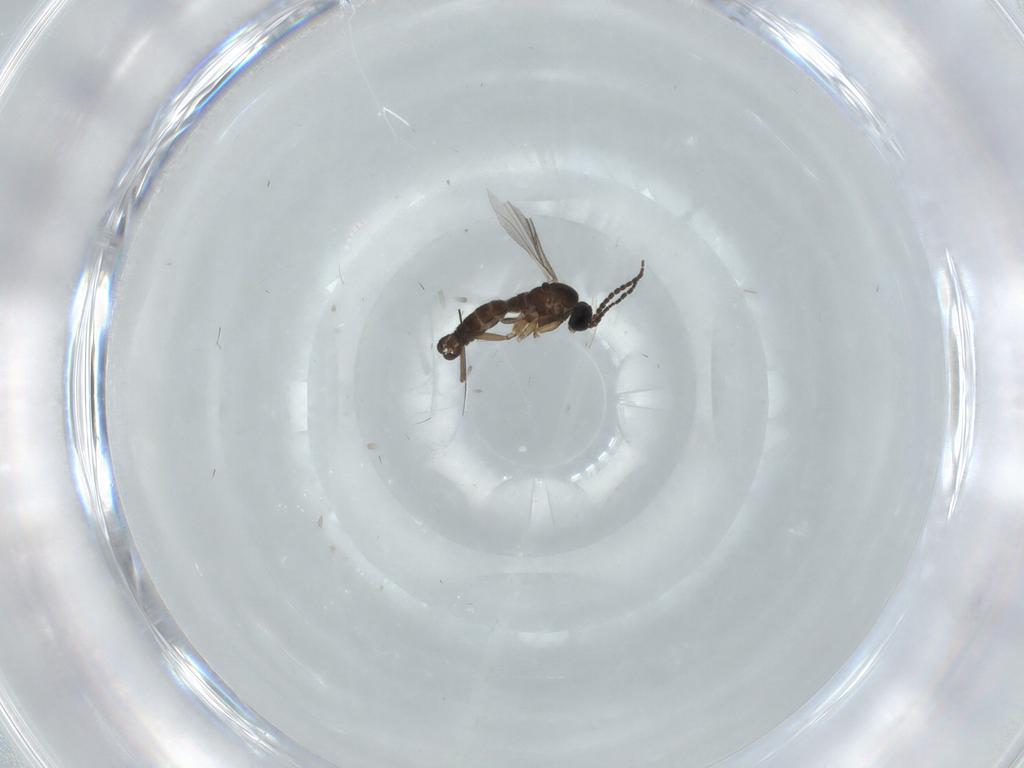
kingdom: Animalia
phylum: Arthropoda
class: Insecta
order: Diptera
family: Sciaridae
